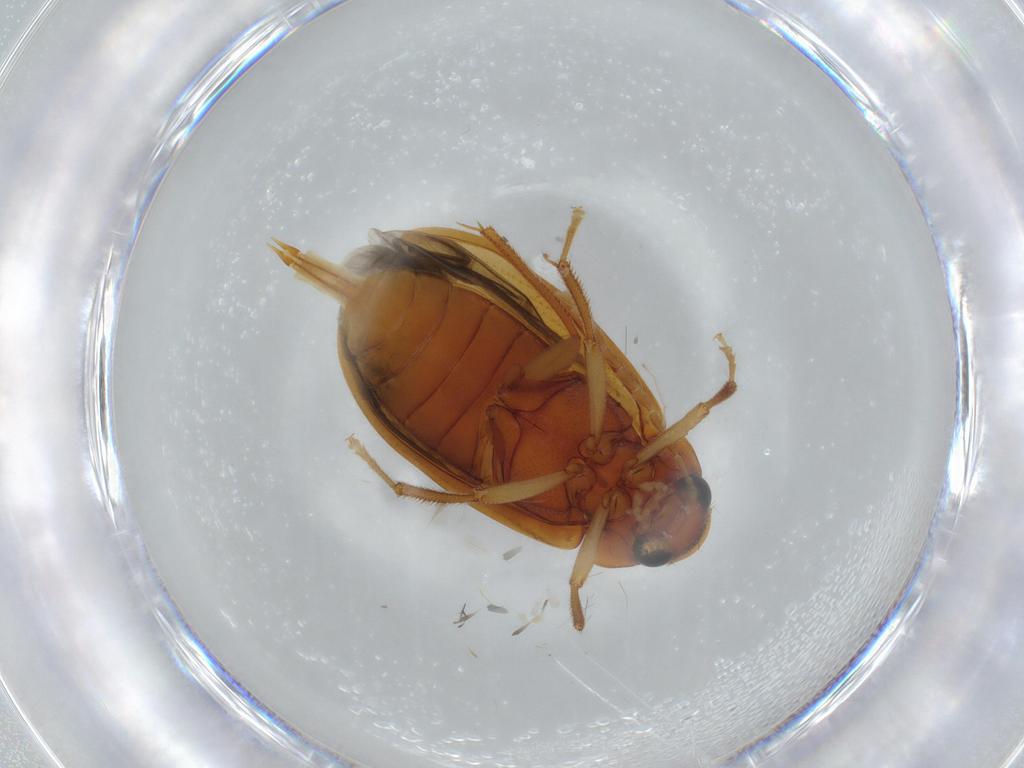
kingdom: Animalia
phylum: Arthropoda
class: Insecta
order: Coleoptera
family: Ptilodactylidae
